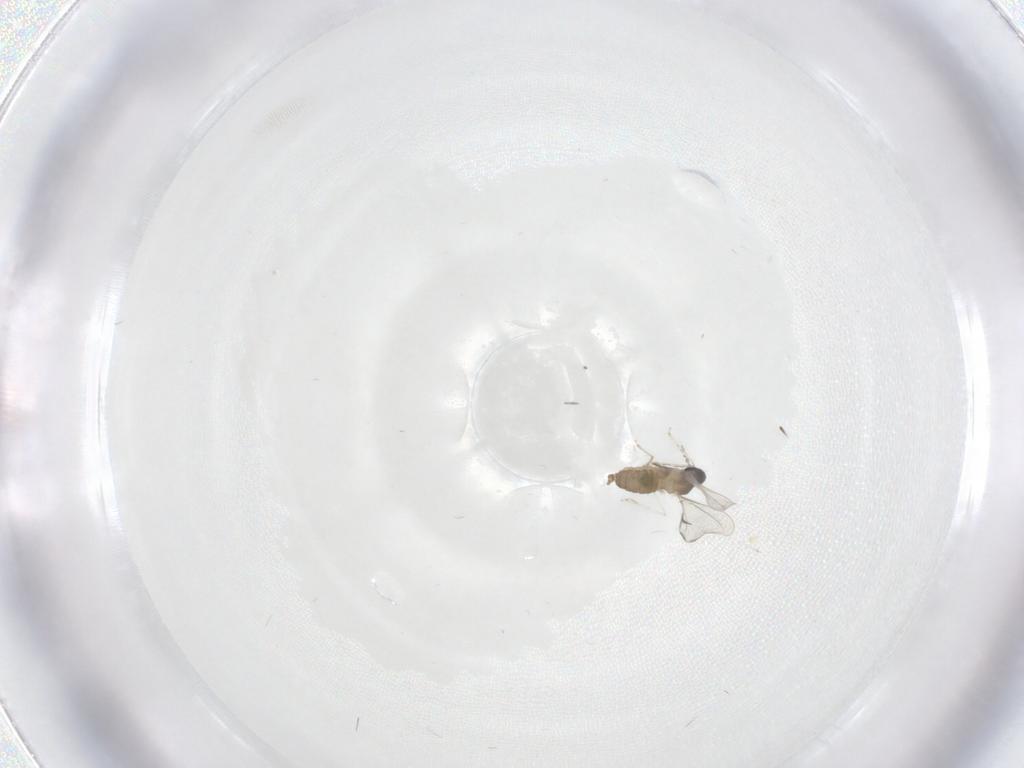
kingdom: Animalia
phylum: Arthropoda
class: Insecta
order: Diptera
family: Cecidomyiidae
